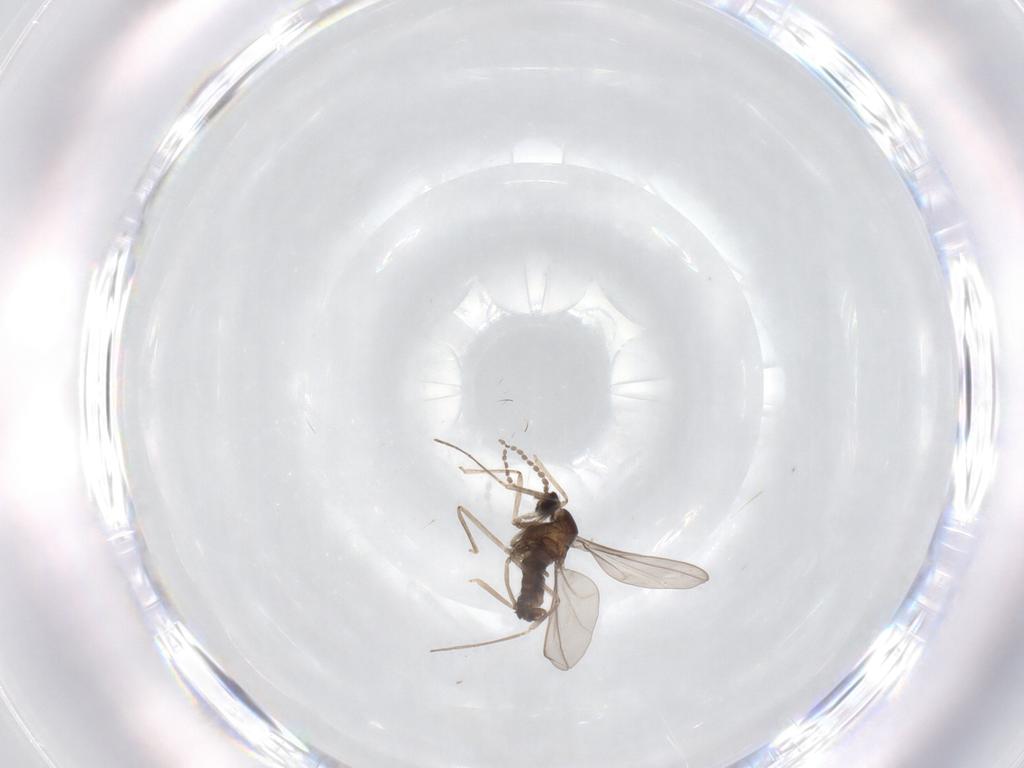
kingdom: Animalia
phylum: Arthropoda
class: Insecta
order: Diptera
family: Cecidomyiidae
